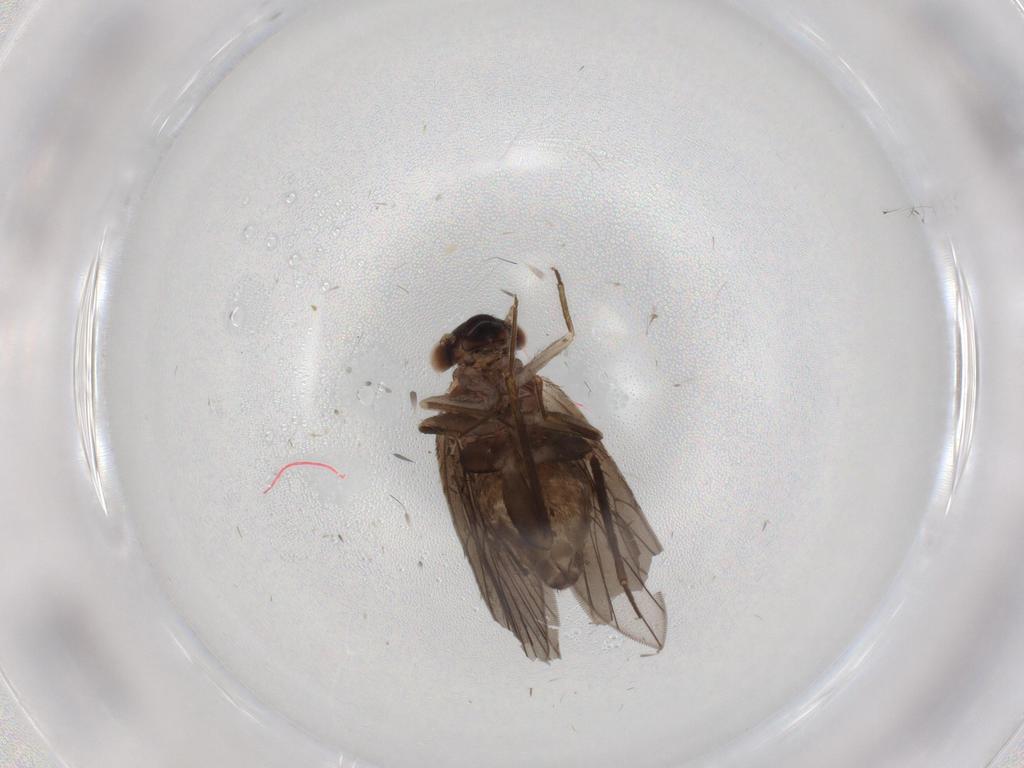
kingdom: Animalia
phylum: Arthropoda
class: Insecta
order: Psocodea
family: Lepidopsocidae
